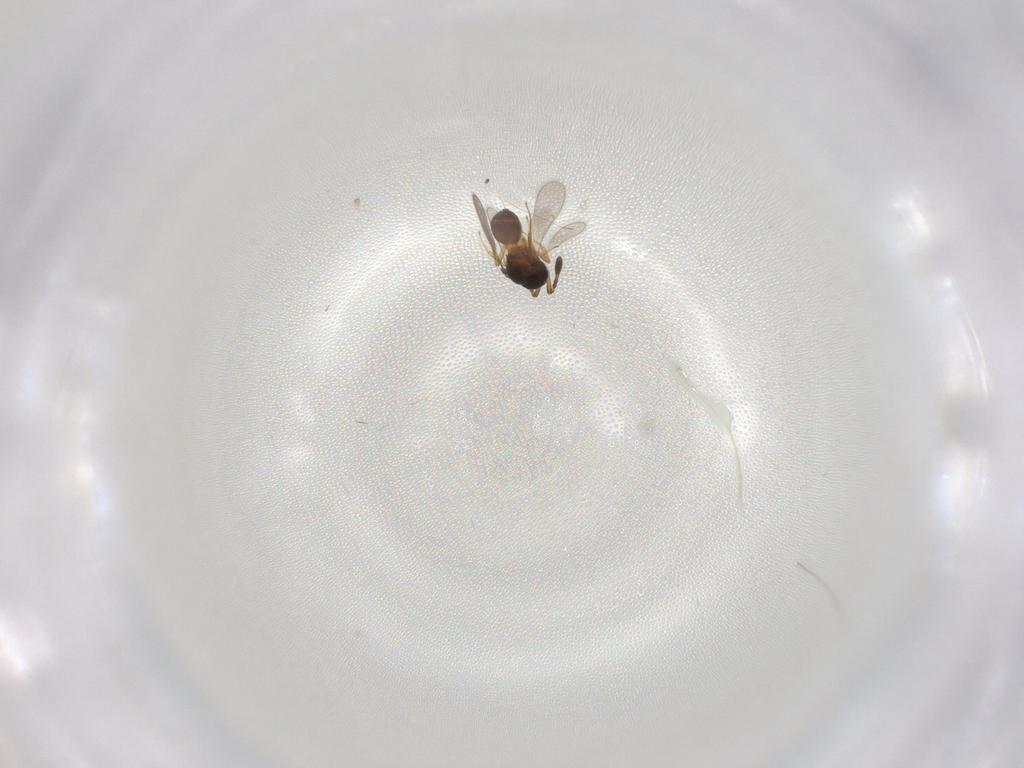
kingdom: Animalia
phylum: Arthropoda
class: Insecta
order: Hymenoptera
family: Scelionidae
